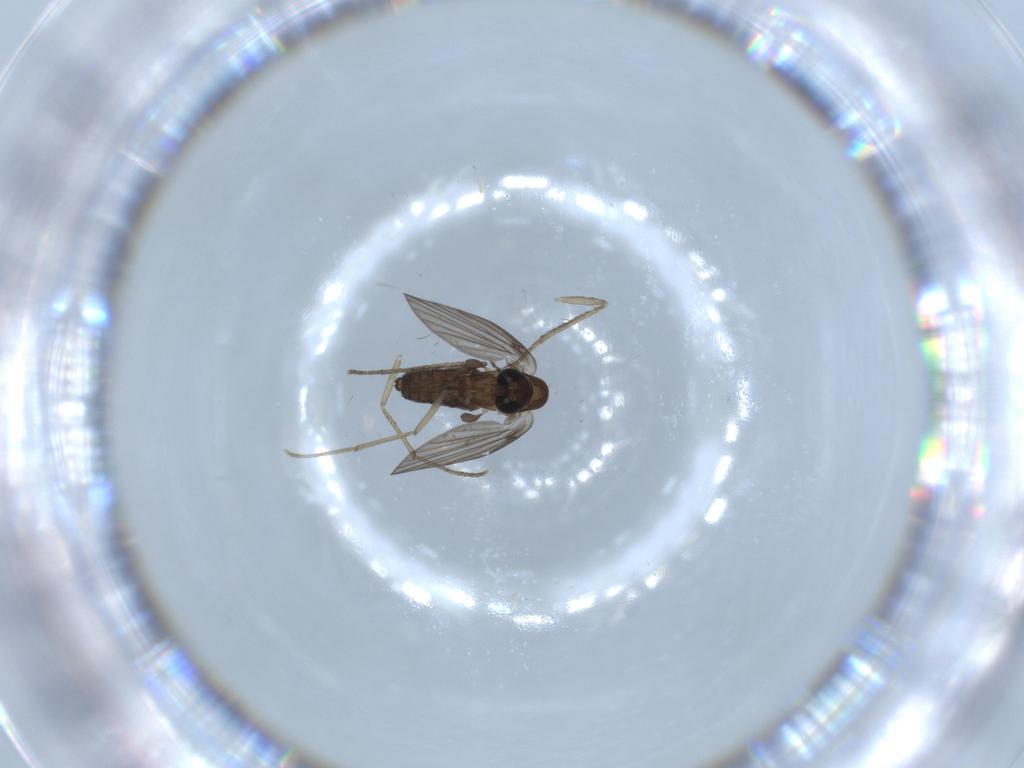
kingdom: Animalia
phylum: Arthropoda
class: Insecta
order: Diptera
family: Psychodidae
